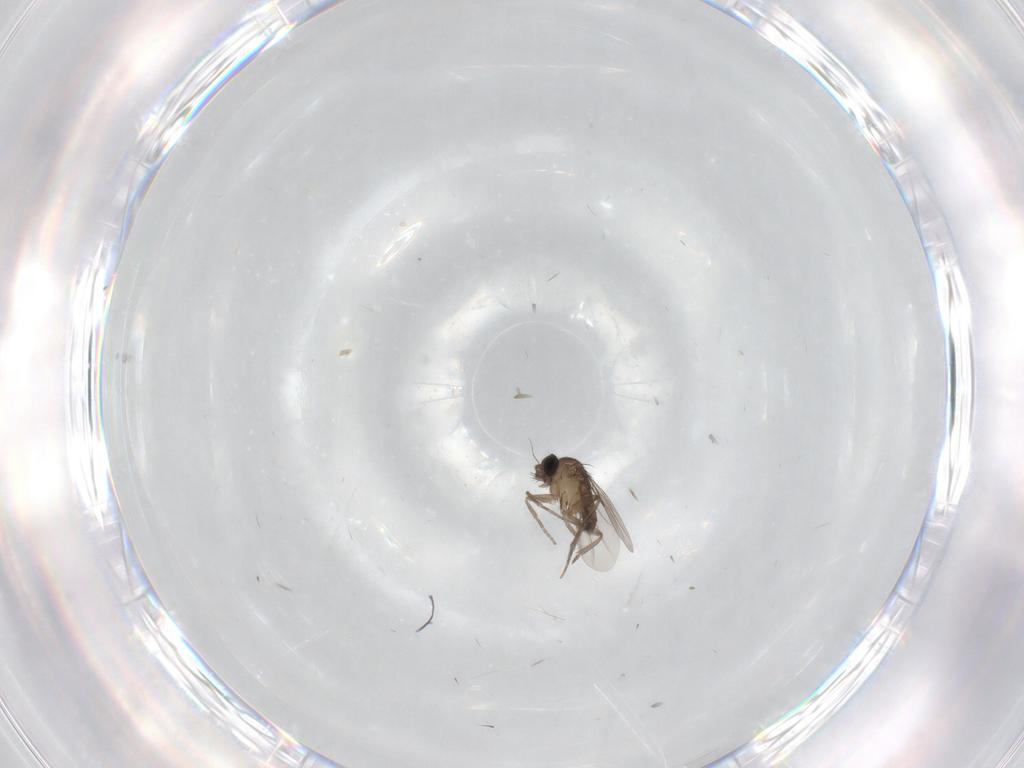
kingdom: Animalia
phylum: Arthropoda
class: Insecta
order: Diptera
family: Phoridae
